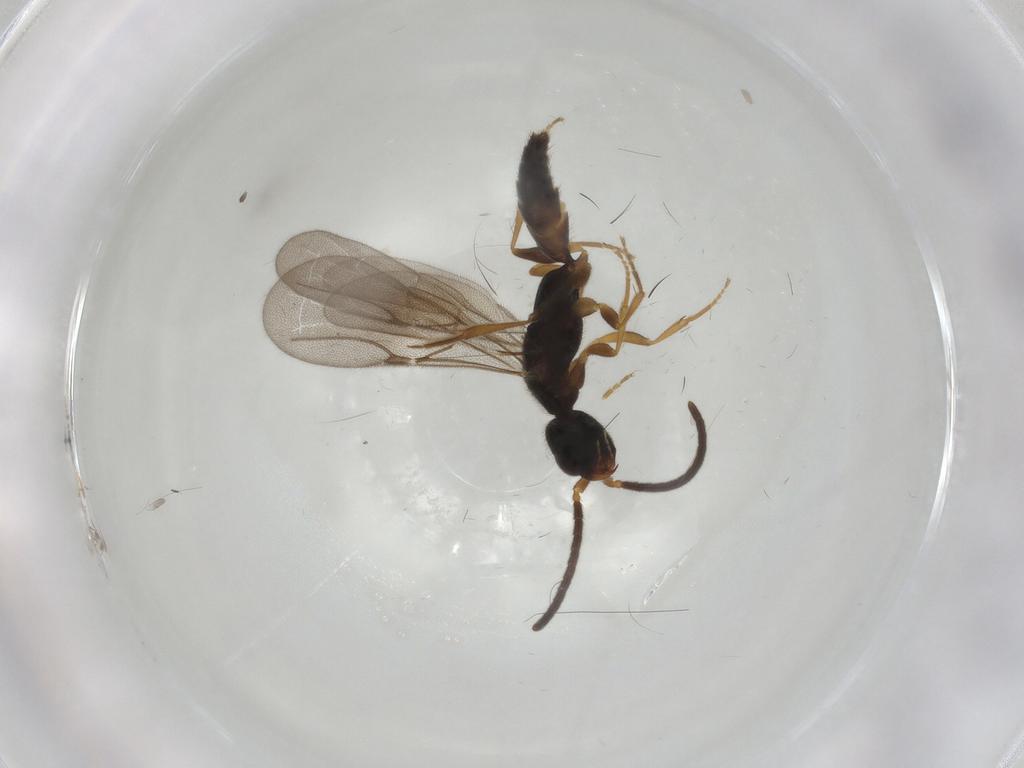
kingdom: Animalia
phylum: Arthropoda
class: Insecta
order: Hymenoptera
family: Bethylidae
